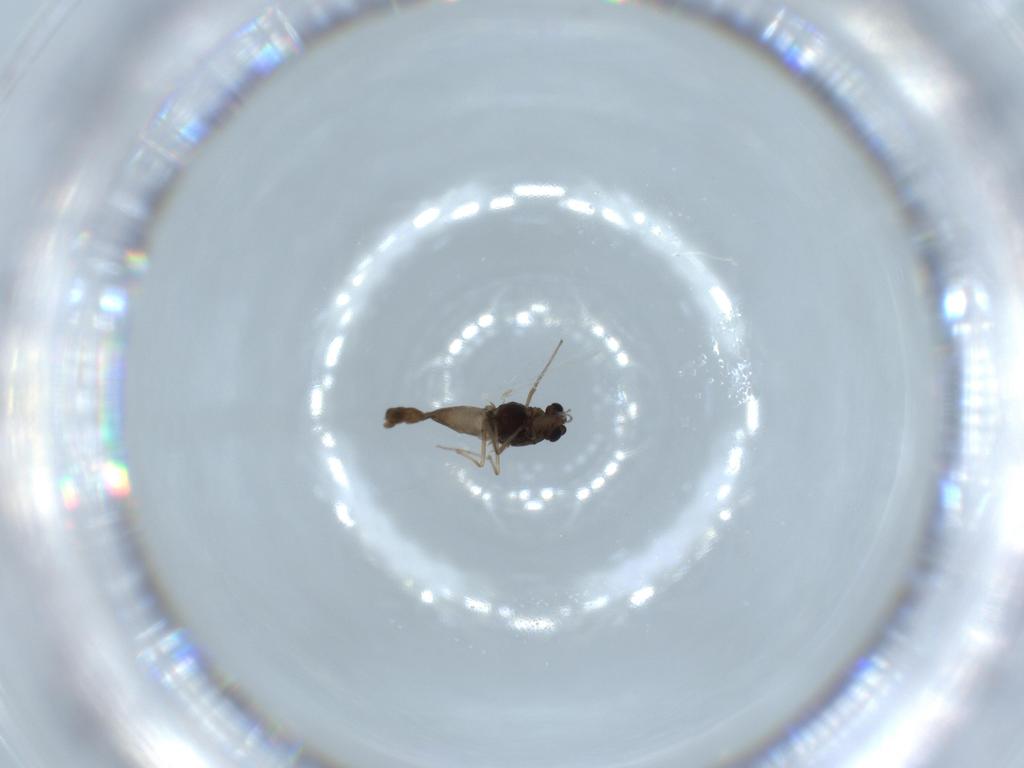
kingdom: Animalia
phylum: Arthropoda
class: Insecta
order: Diptera
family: Chironomidae
